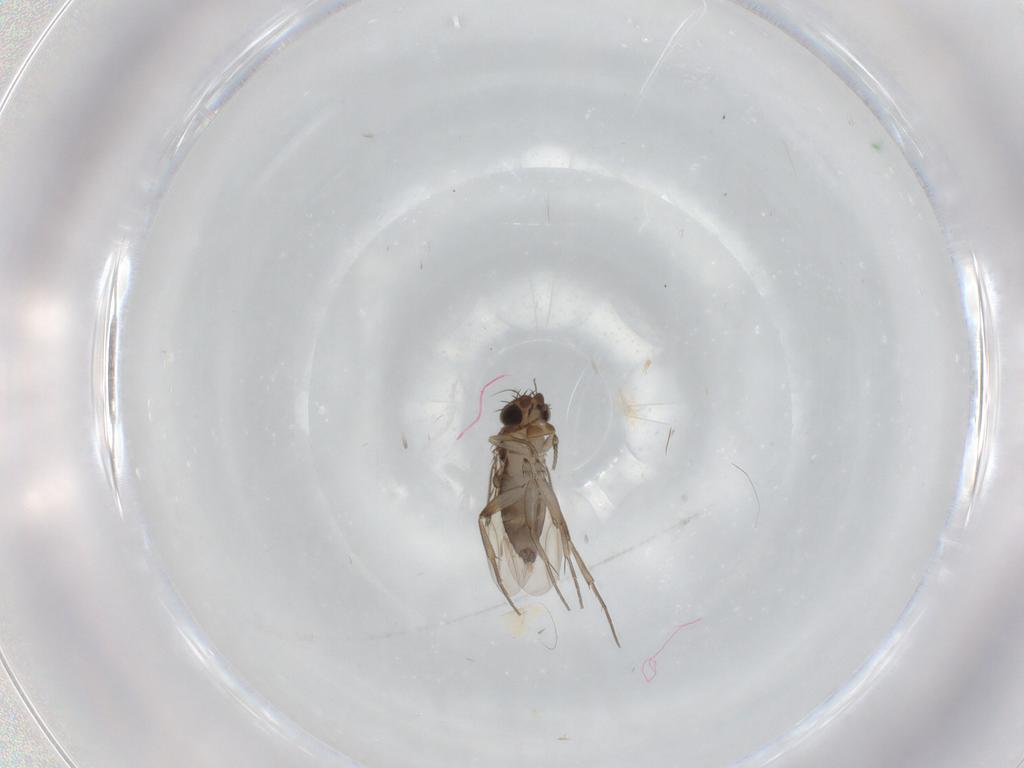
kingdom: Animalia
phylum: Arthropoda
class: Insecta
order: Diptera
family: Phoridae
